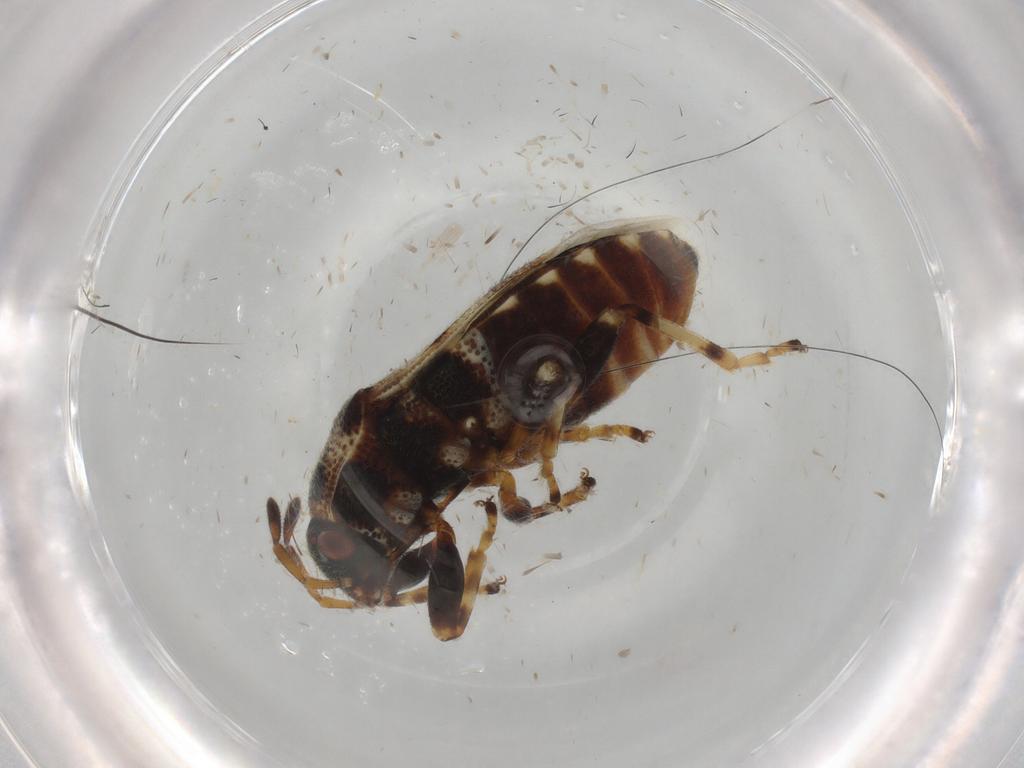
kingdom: Animalia
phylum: Arthropoda
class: Insecta
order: Hemiptera
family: Lygaeidae
